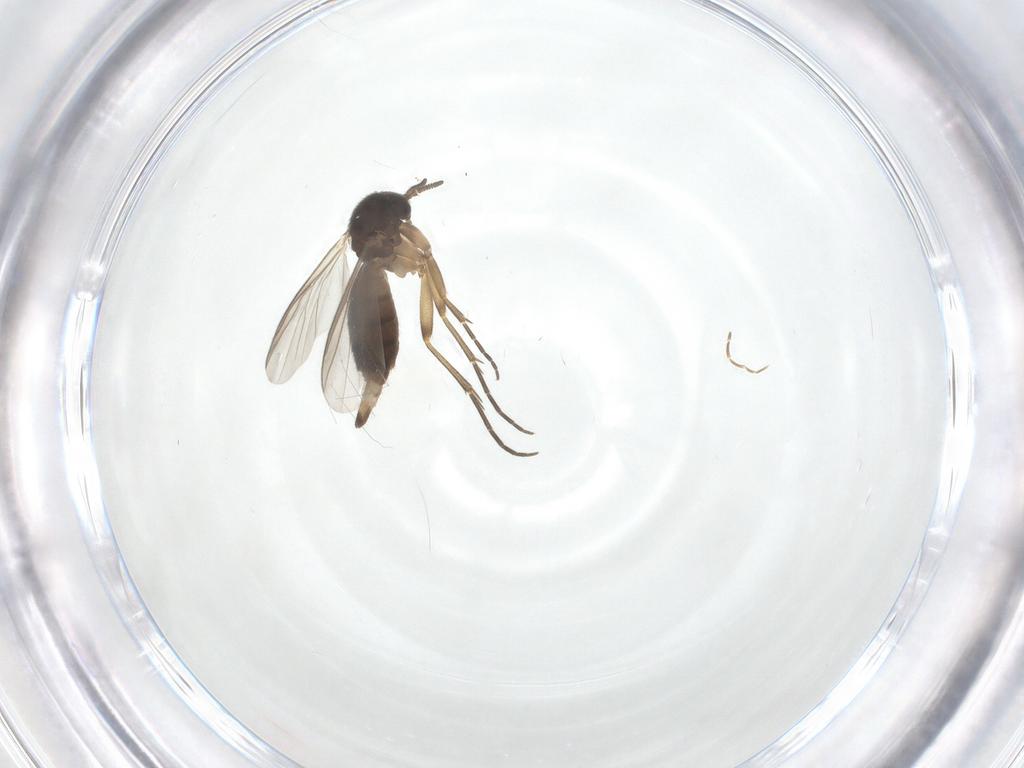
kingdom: Animalia
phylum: Arthropoda
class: Insecta
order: Diptera
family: Mycetophilidae
